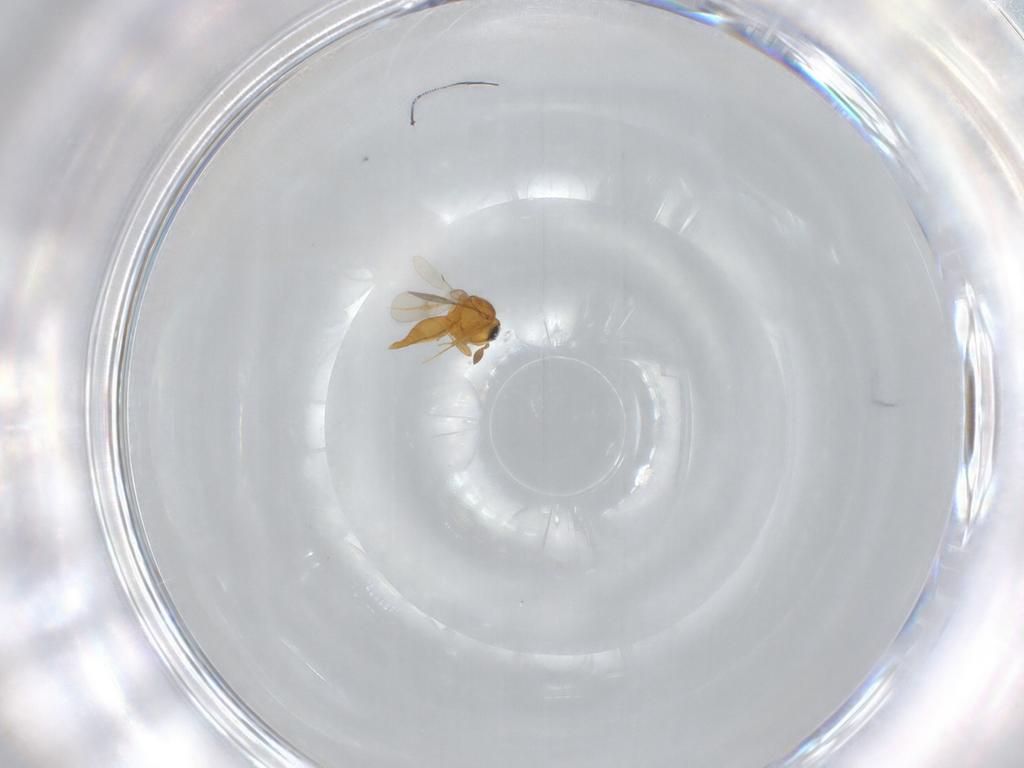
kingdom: Animalia
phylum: Arthropoda
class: Insecta
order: Hymenoptera
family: Scelionidae
